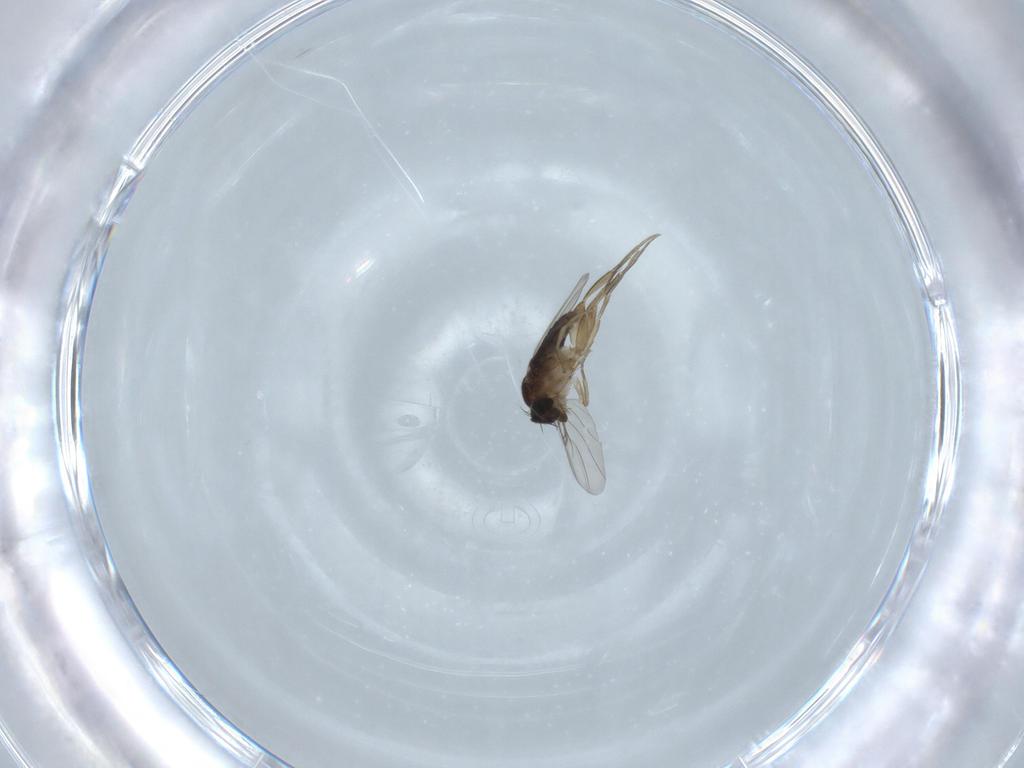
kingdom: Animalia
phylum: Arthropoda
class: Insecta
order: Diptera
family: Phoridae
